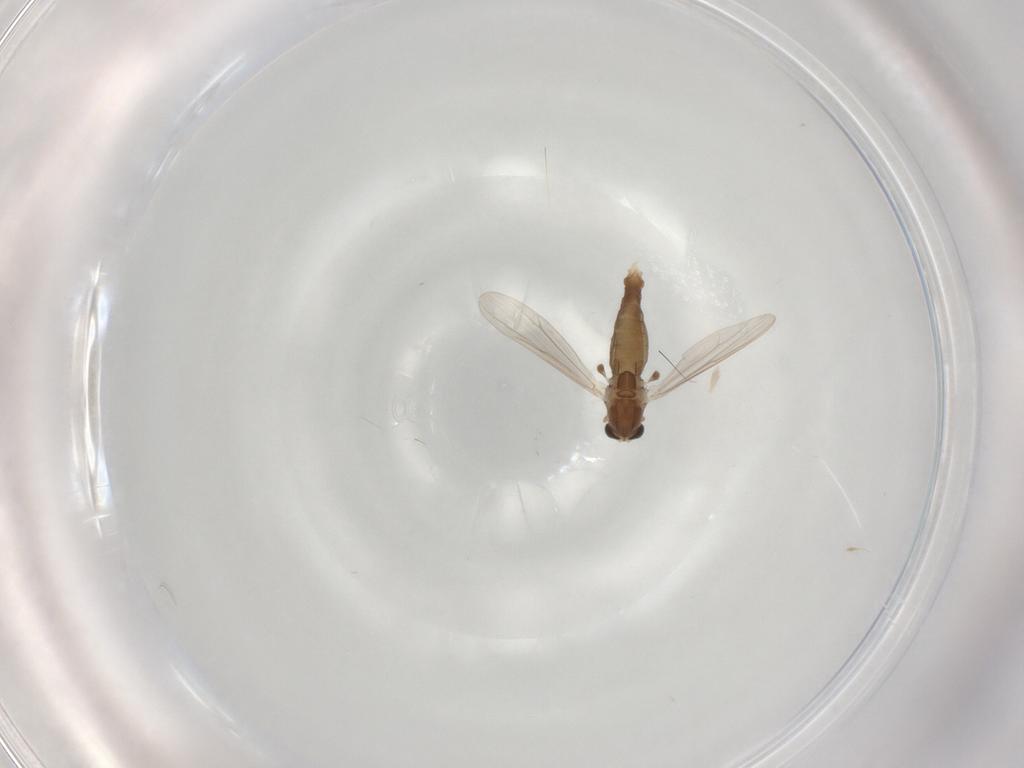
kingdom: Animalia
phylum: Arthropoda
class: Insecta
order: Diptera
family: Chironomidae
